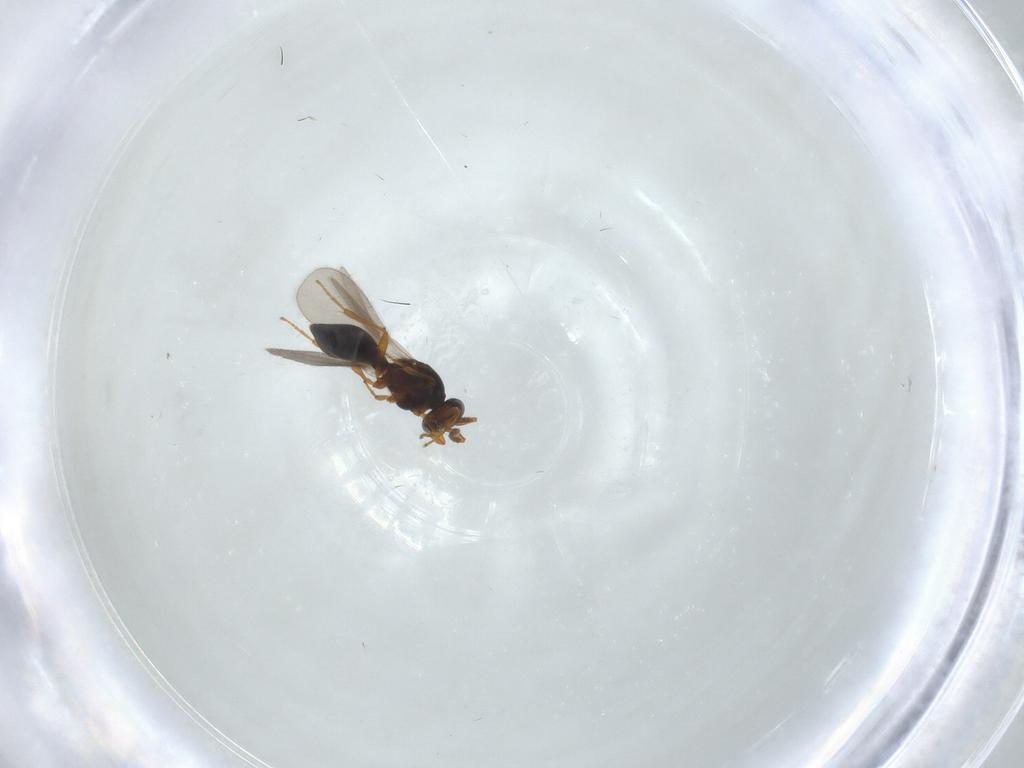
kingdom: Animalia
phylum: Arthropoda
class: Insecta
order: Hymenoptera
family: Platygastridae
